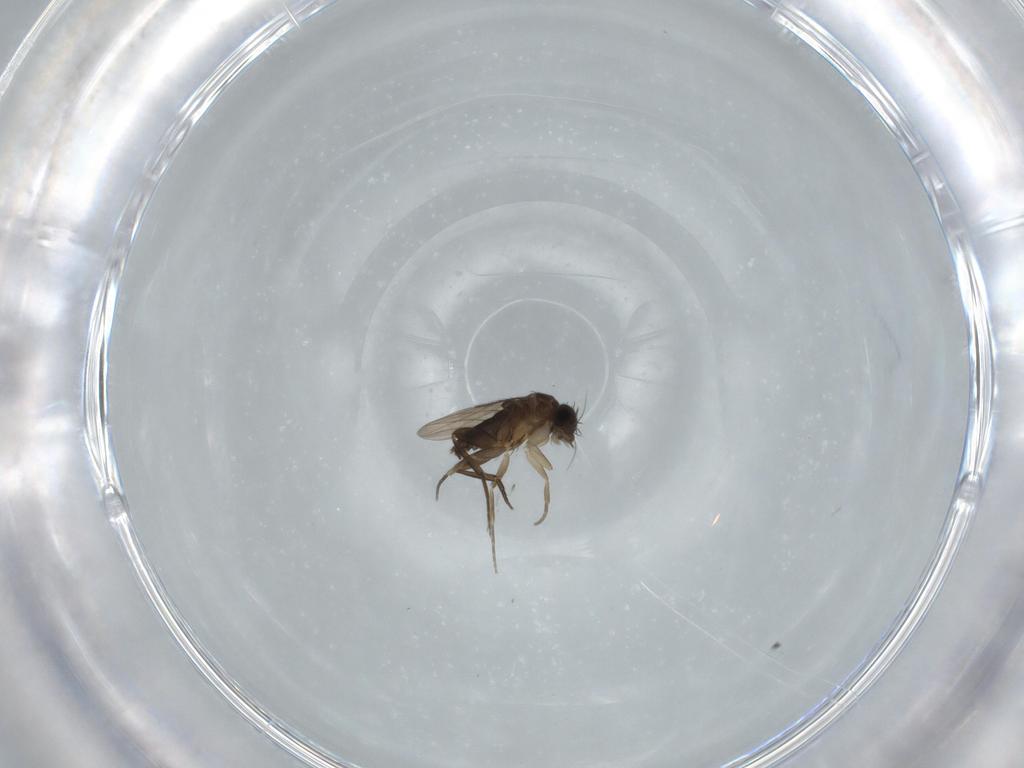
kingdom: Animalia
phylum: Arthropoda
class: Insecta
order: Diptera
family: Phoridae
